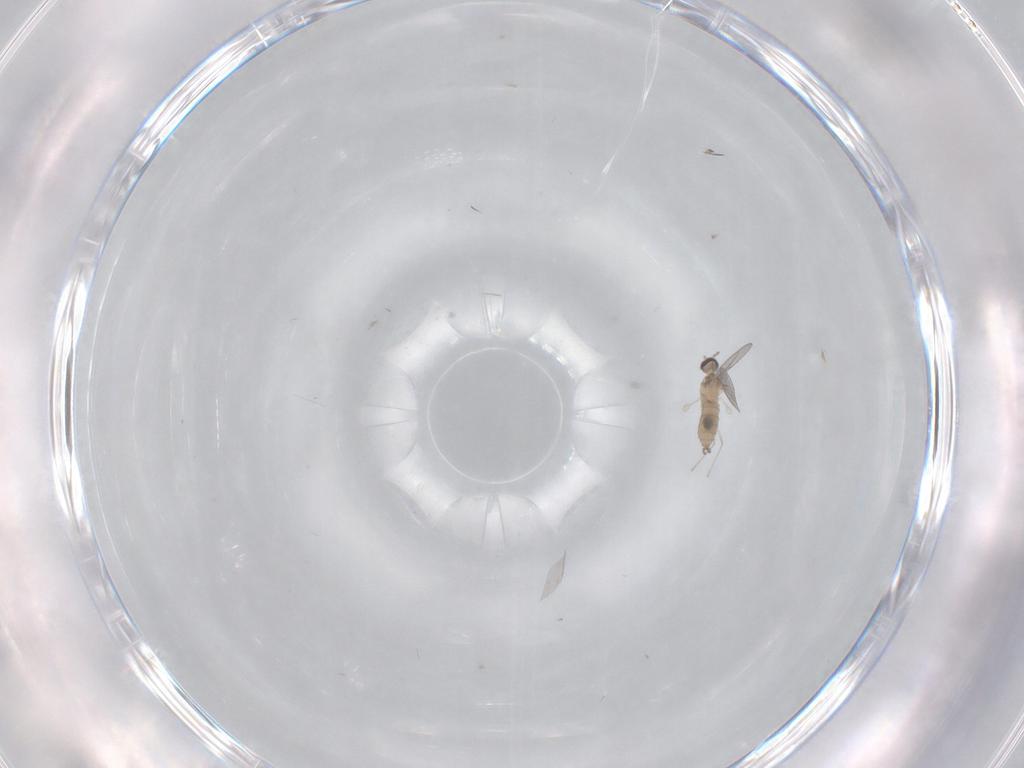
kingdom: Animalia
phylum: Arthropoda
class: Insecta
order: Diptera
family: Cecidomyiidae
